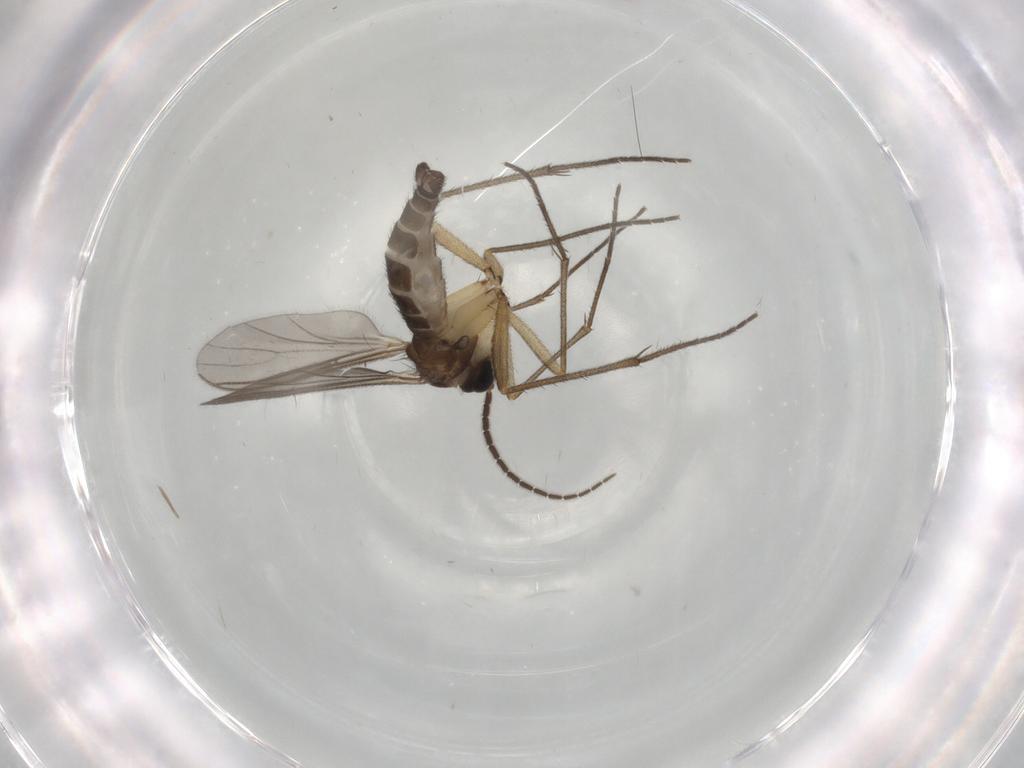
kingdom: Animalia
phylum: Arthropoda
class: Insecta
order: Diptera
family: Sciaridae
